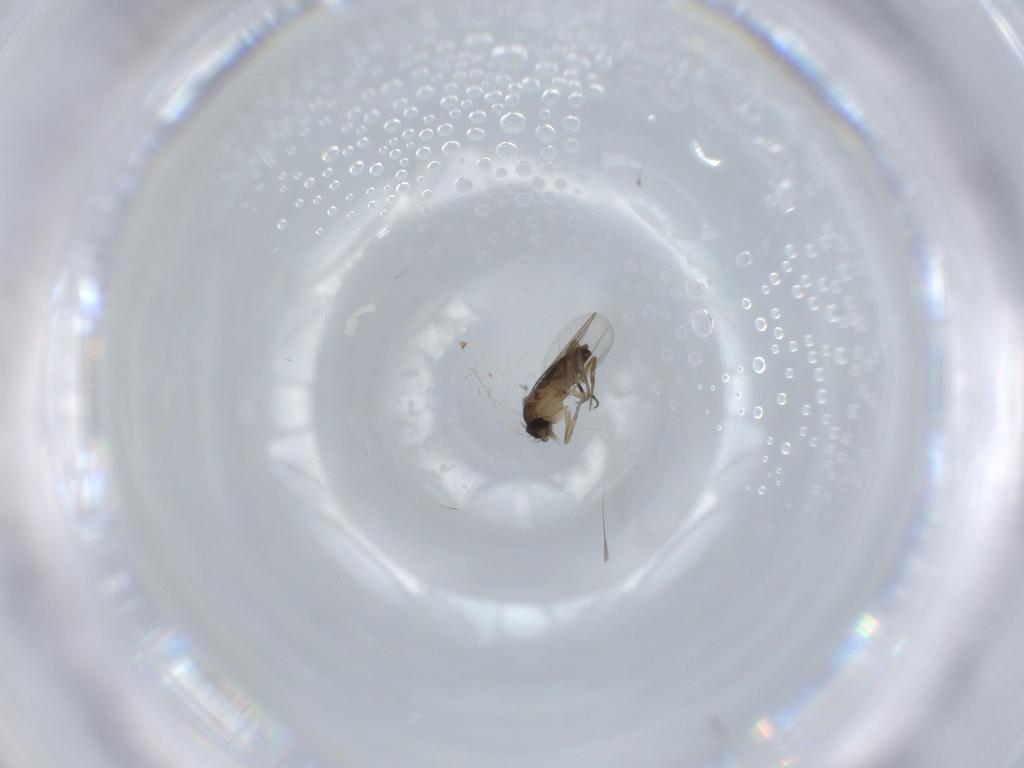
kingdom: Animalia
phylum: Arthropoda
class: Insecta
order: Diptera
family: Phoridae
